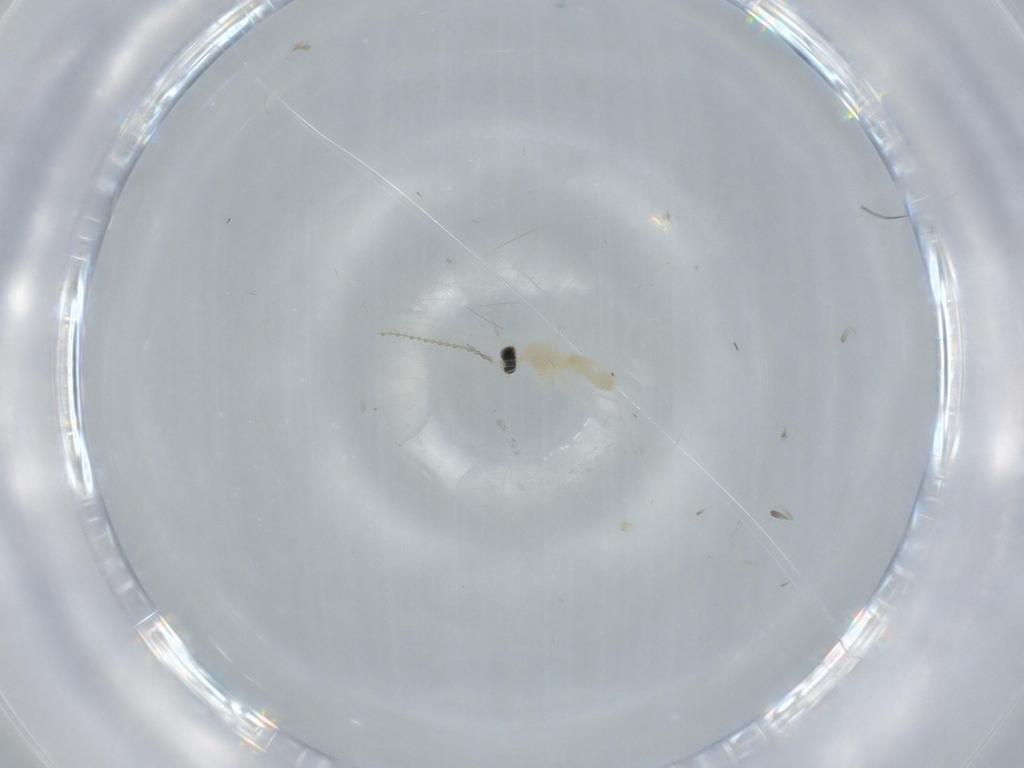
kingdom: Animalia
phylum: Arthropoda
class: Insecta
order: Diptera
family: Cecidomyiidae
